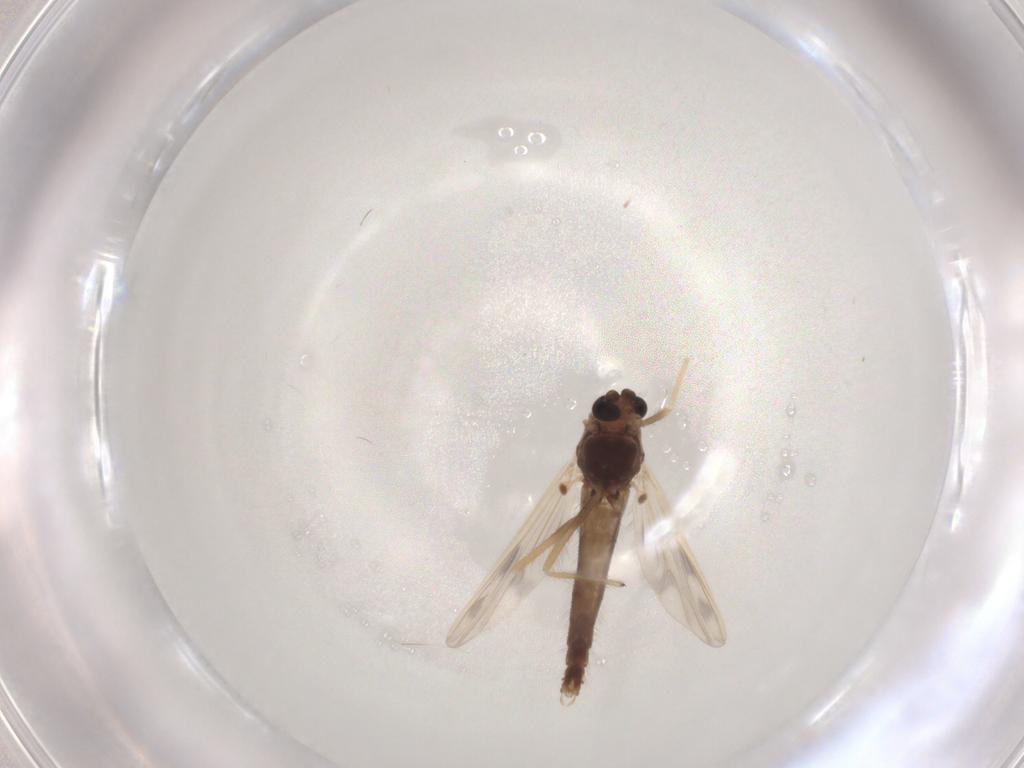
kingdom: Animalia
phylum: Arthropoda
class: Insecta
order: Diptera
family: Chironomidae
